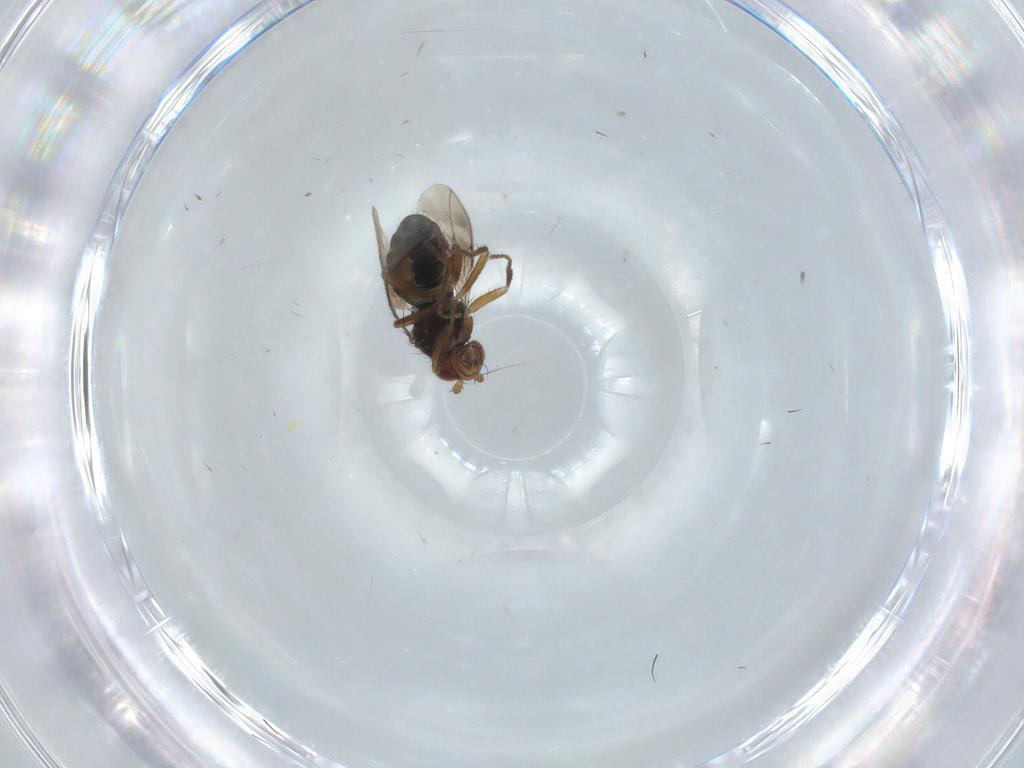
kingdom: Animalia
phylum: Arthropoda
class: Insecta
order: Diptera
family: Sphaeroceridae
